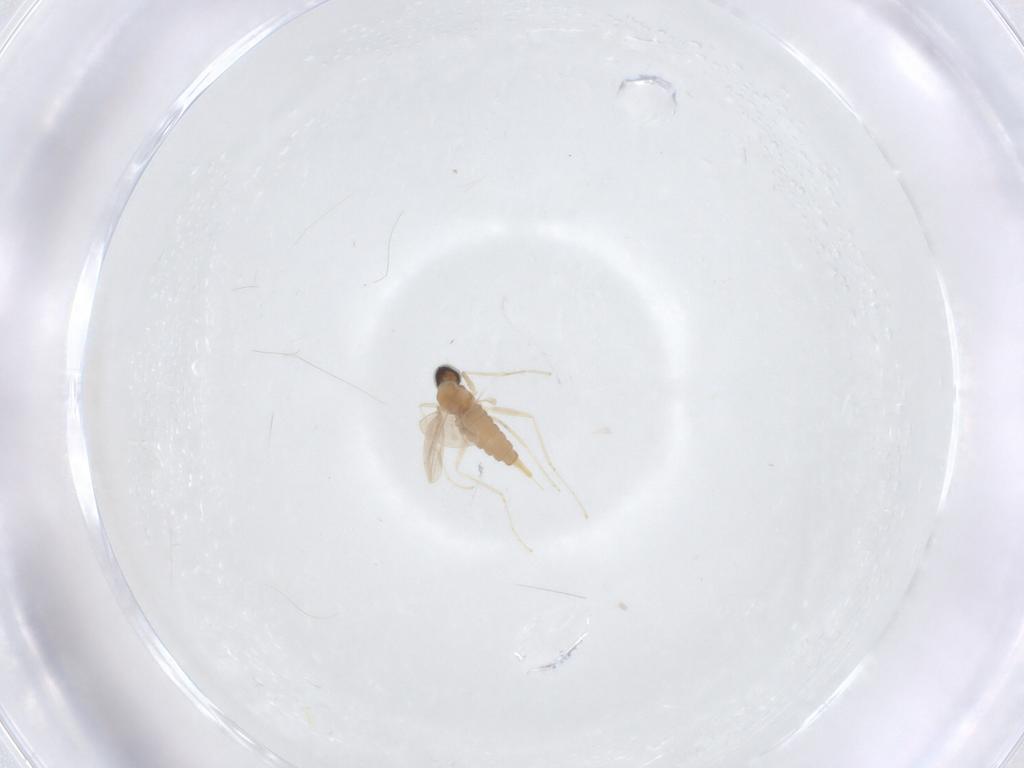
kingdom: Animalia
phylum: Arthropoda
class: Insecta
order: Diptera
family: Cecidomyiidae
